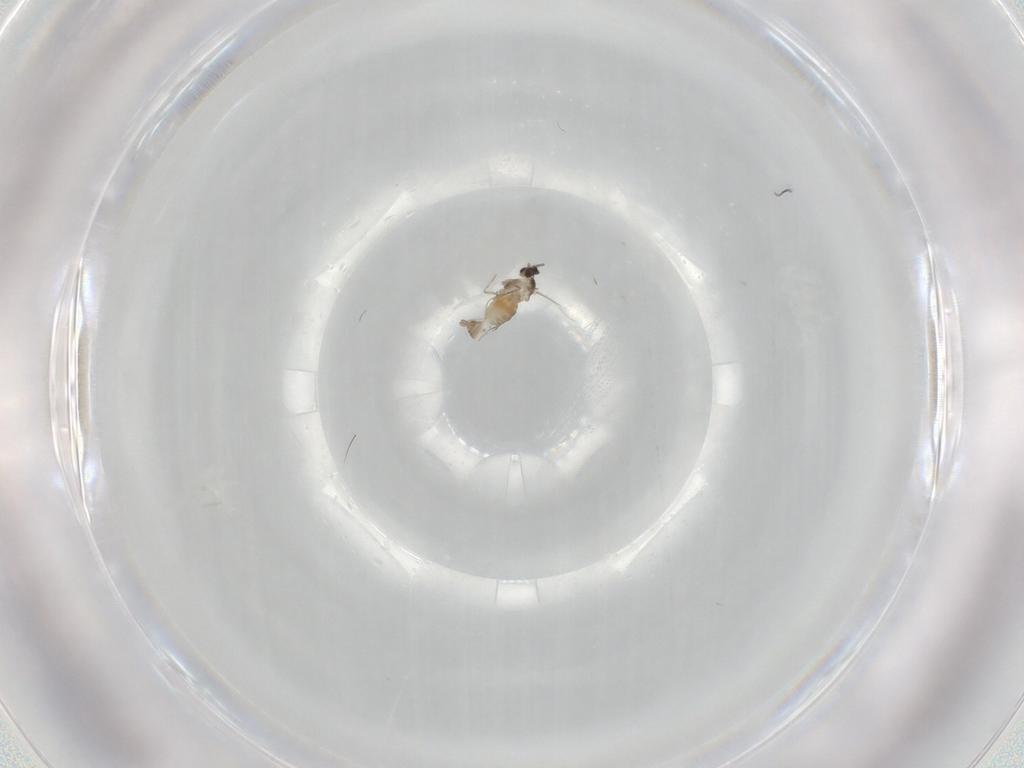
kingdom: Animalia
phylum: Arthropoda
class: Insecta
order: Diptera
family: Cecidomyiidae
